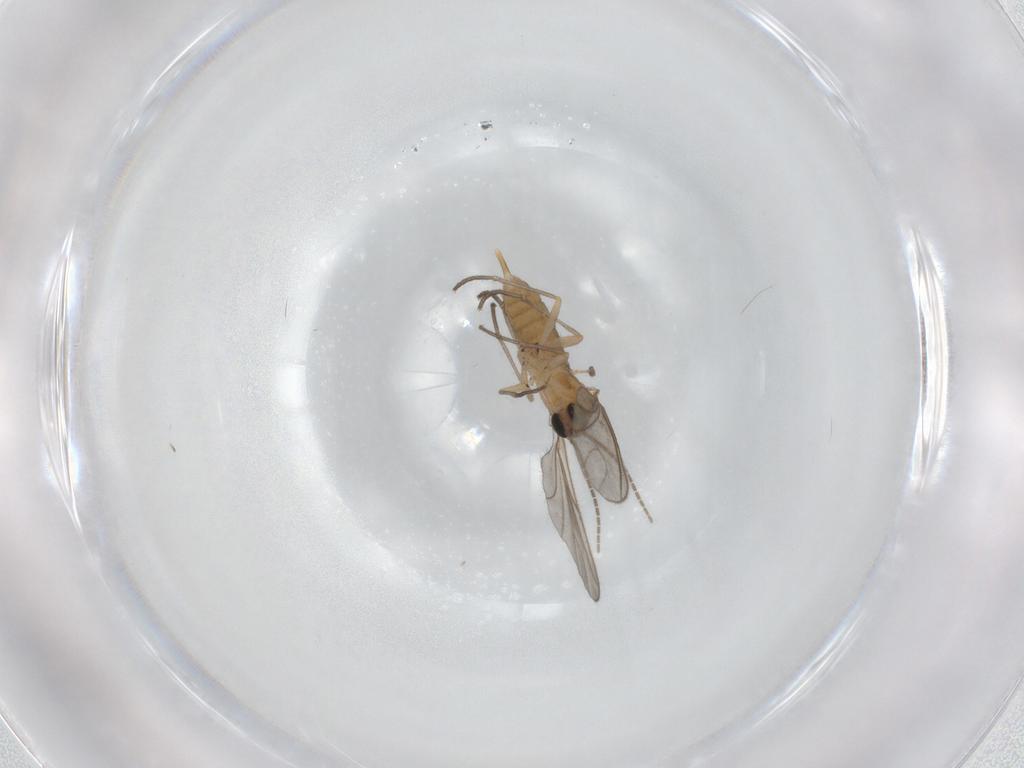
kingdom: Animalia
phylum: Arthropoda
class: Insecta
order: Diptera
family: Sciaridae
